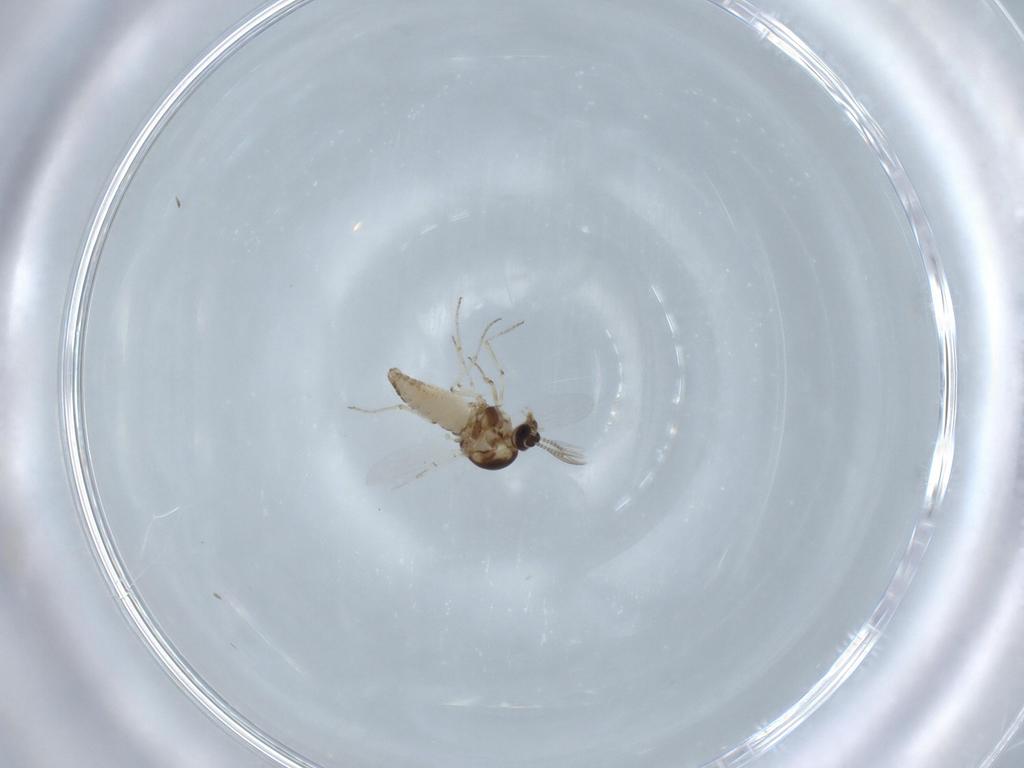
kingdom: Animalia
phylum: Arthropoda
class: Insecta
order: Diptera
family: Ceratopogonidae
